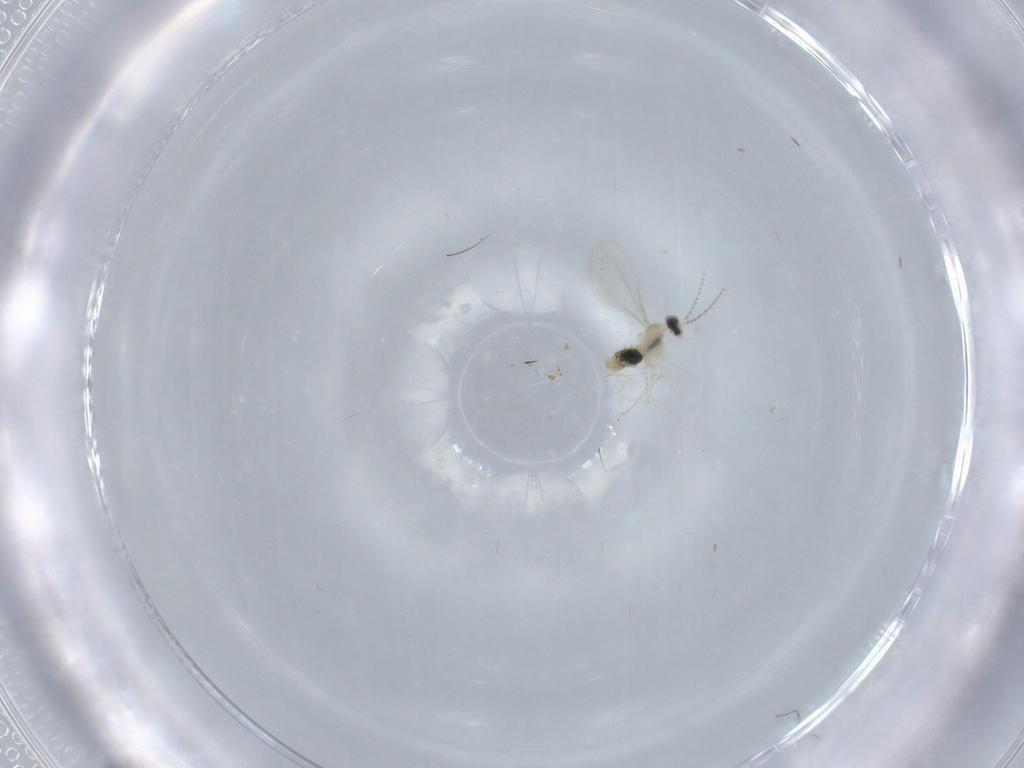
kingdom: Animalia
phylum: Arthropoda
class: Insecta
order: Diptera
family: Cecidomyiidae
